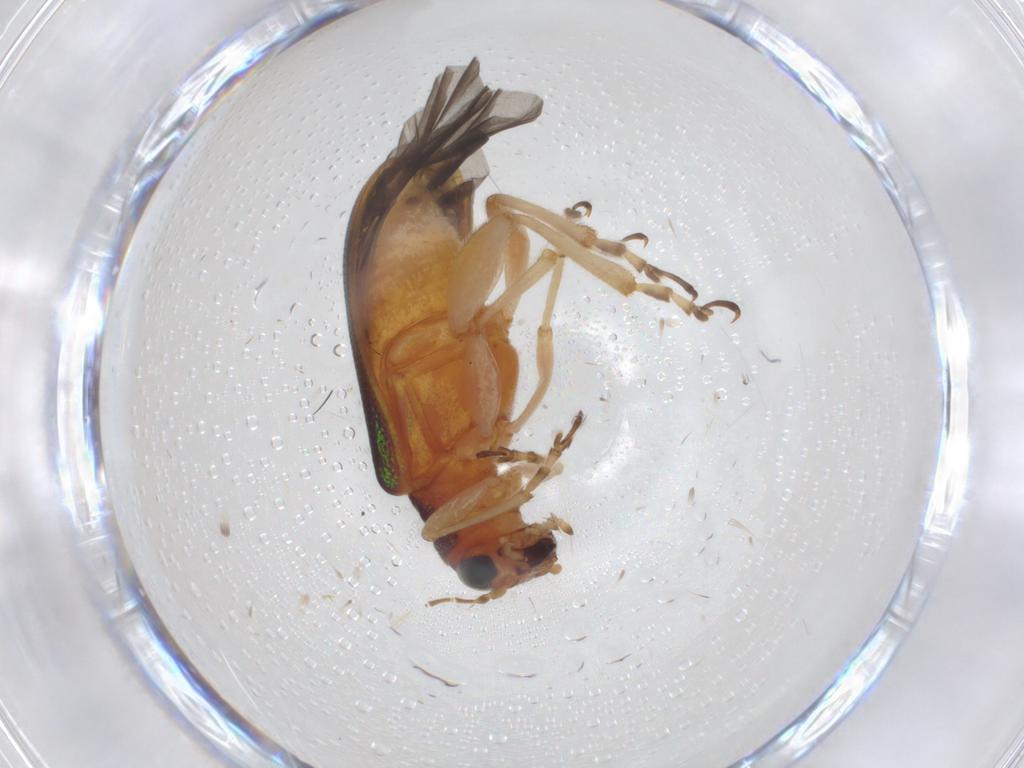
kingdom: Animalia
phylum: Arthropoda
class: Insecta
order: Coleoptera
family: Chrysomelidae
